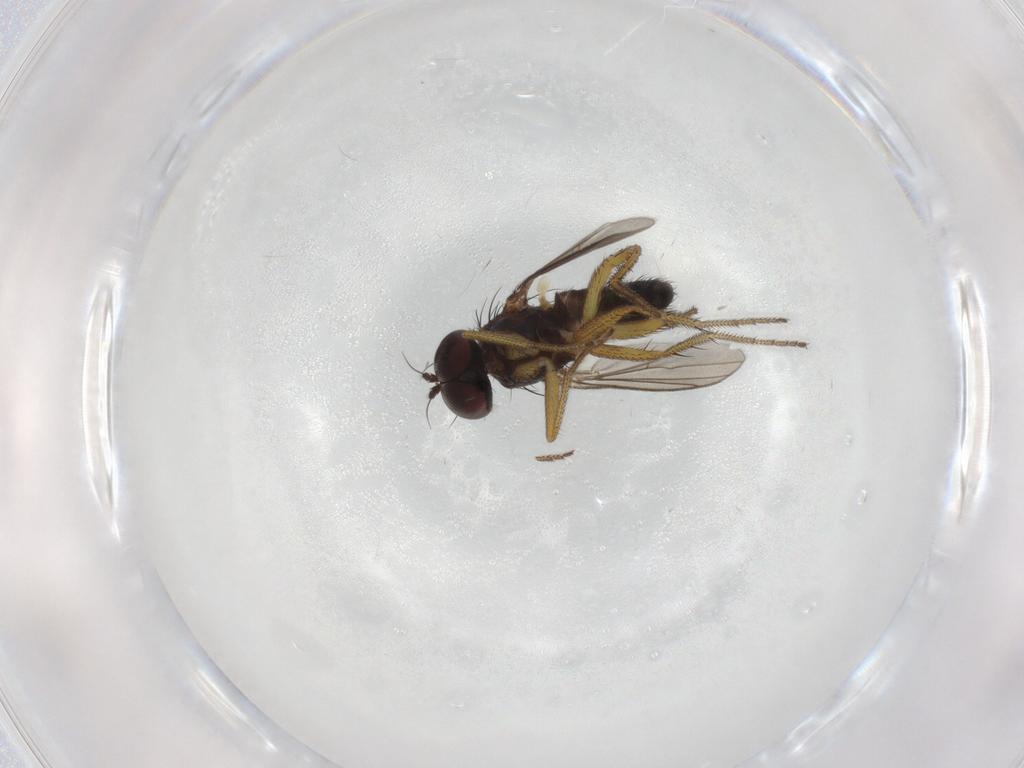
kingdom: Animalia
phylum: Arthropoda
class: Insecta
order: Diptera
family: Dolichopodidae
